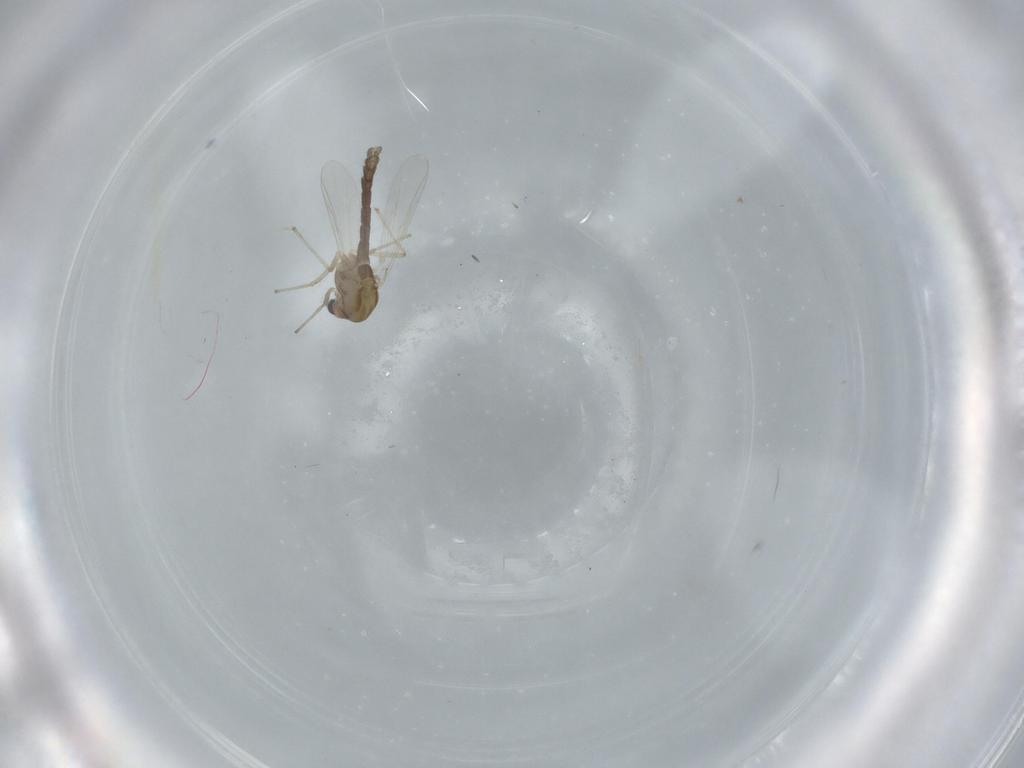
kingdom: Animalia
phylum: Arthropoda
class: Insecta
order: Diptera
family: Chironomidae
